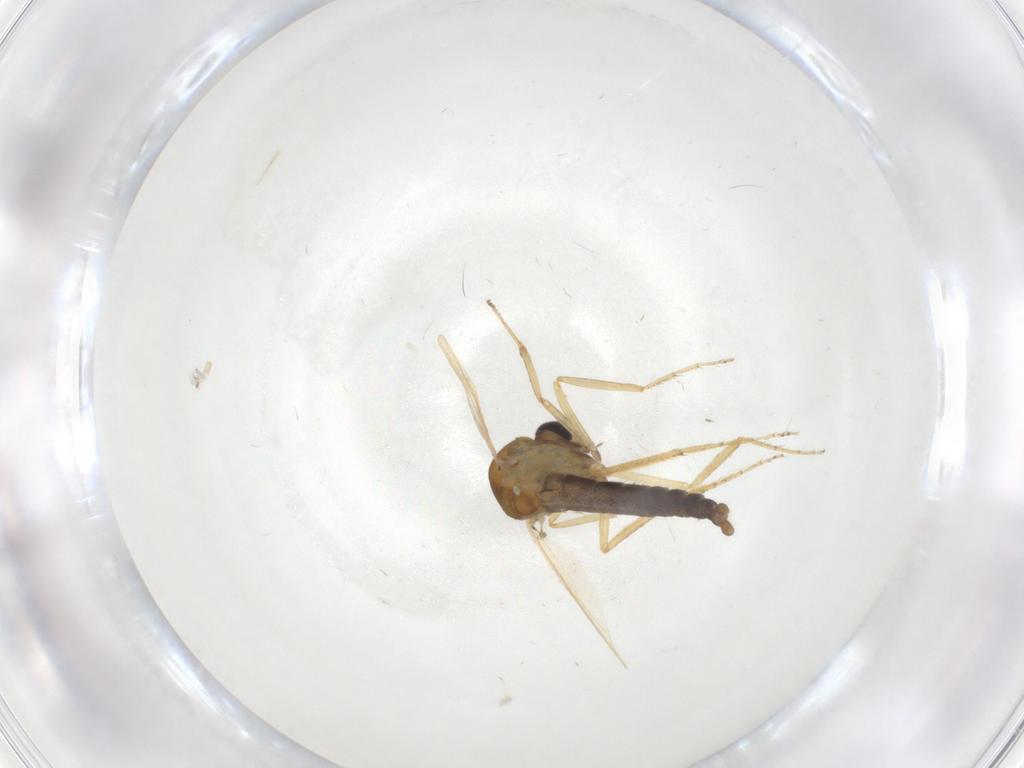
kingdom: Animalia
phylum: Arthropoda
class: Insecta
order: Diptera
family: Ceratopogonidae
